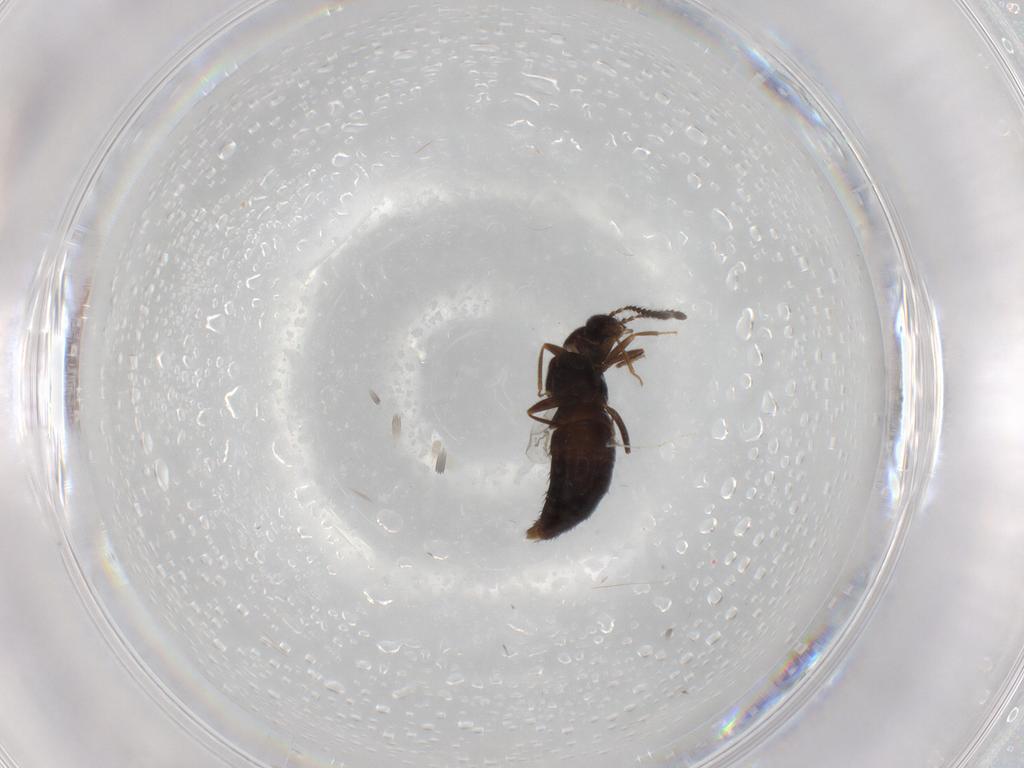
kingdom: Animalia
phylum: Arthropoda
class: Insecta
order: Coleoptera
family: Staphylinidae
